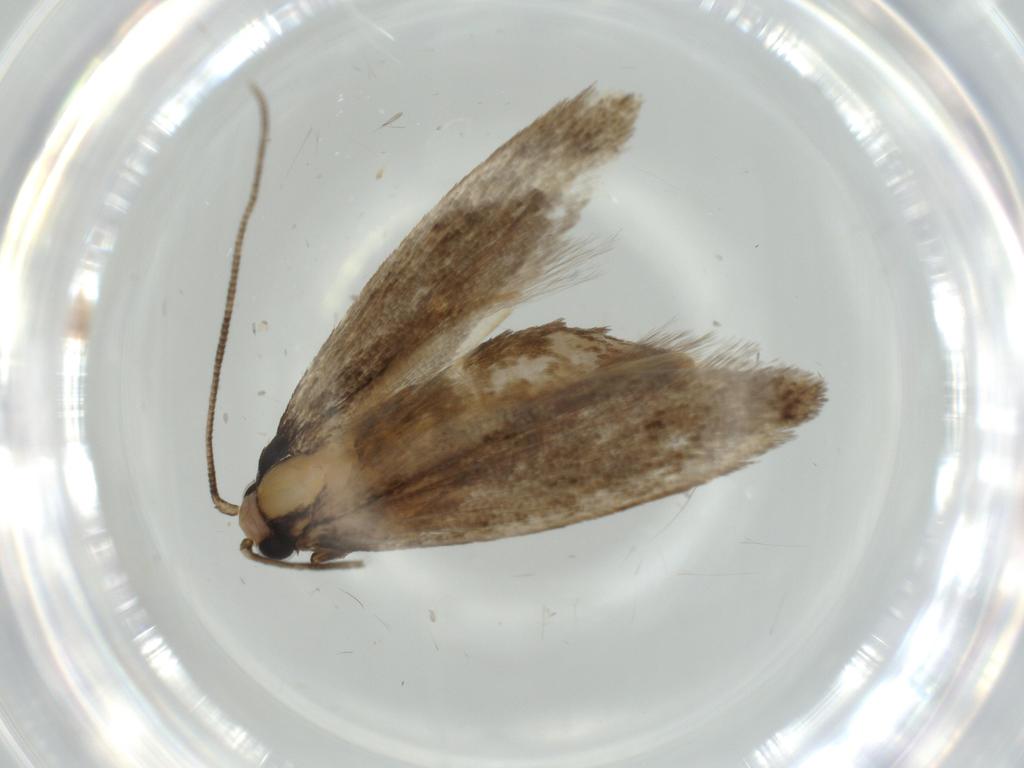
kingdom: Animalia
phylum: Arthropoda
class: Insecta
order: Lepidoptera
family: Tineidae
